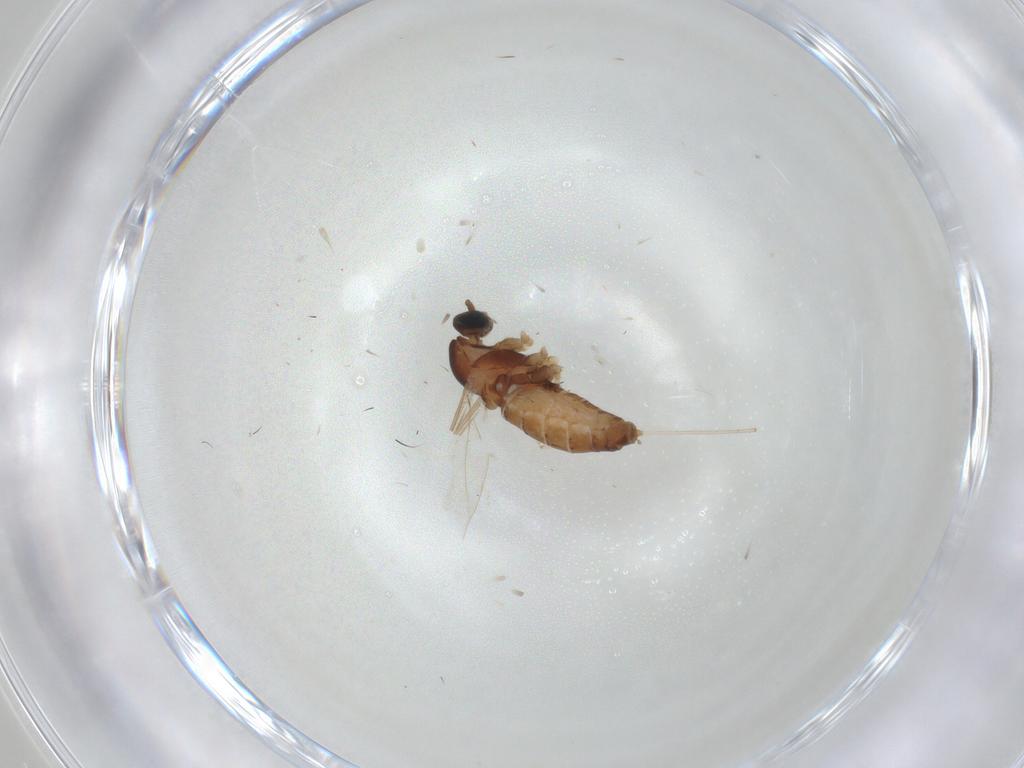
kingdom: Animalia
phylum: Arthropoda
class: Insecta
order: Diptera
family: Cecidomyiidae
